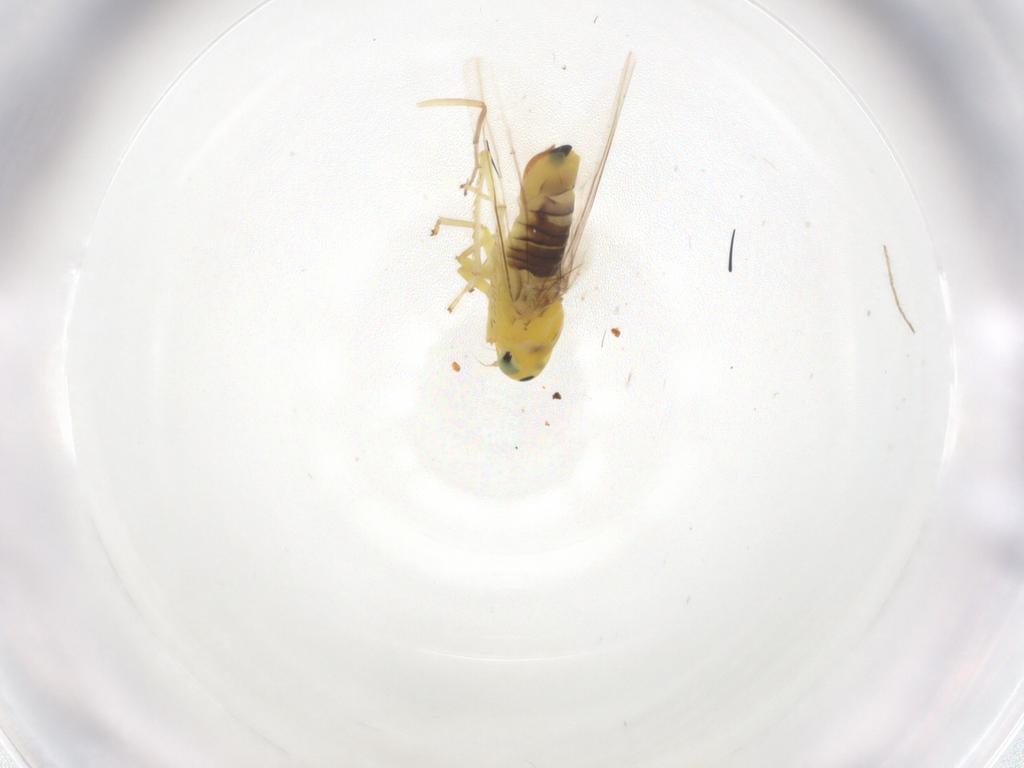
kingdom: Animalia
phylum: Arthropoda
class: Insecta
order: Hemiptera
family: Cicadellidae
